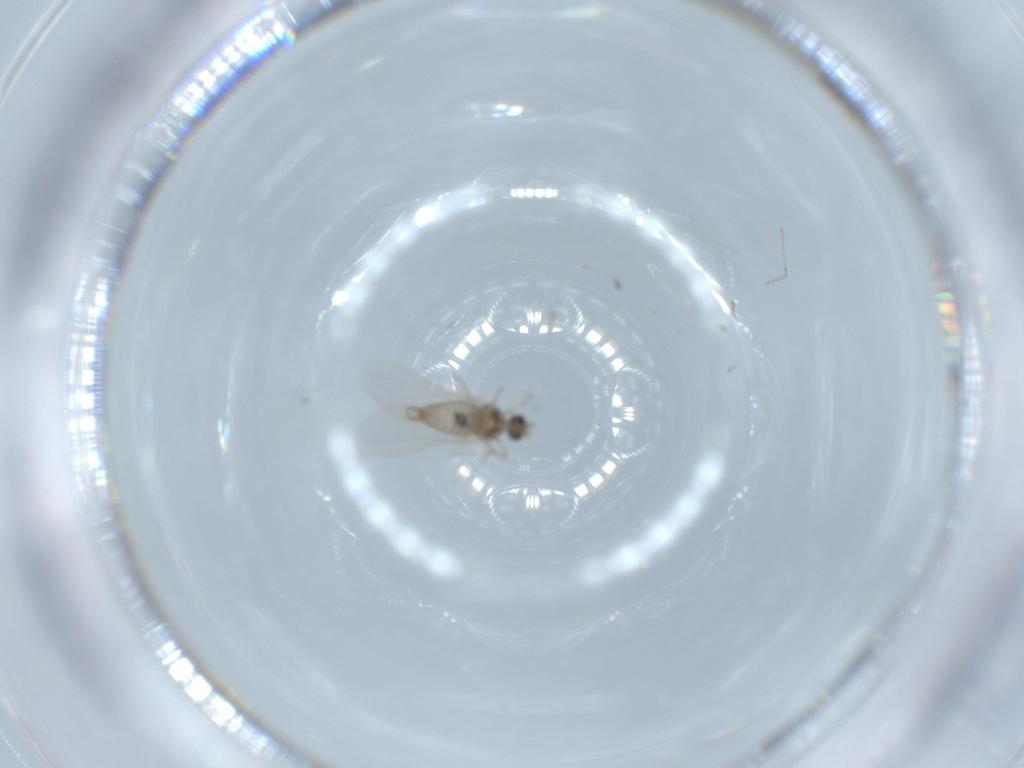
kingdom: Animalia
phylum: Arthropoda
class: Insecta
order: Diptera
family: Cecidomyiidae
